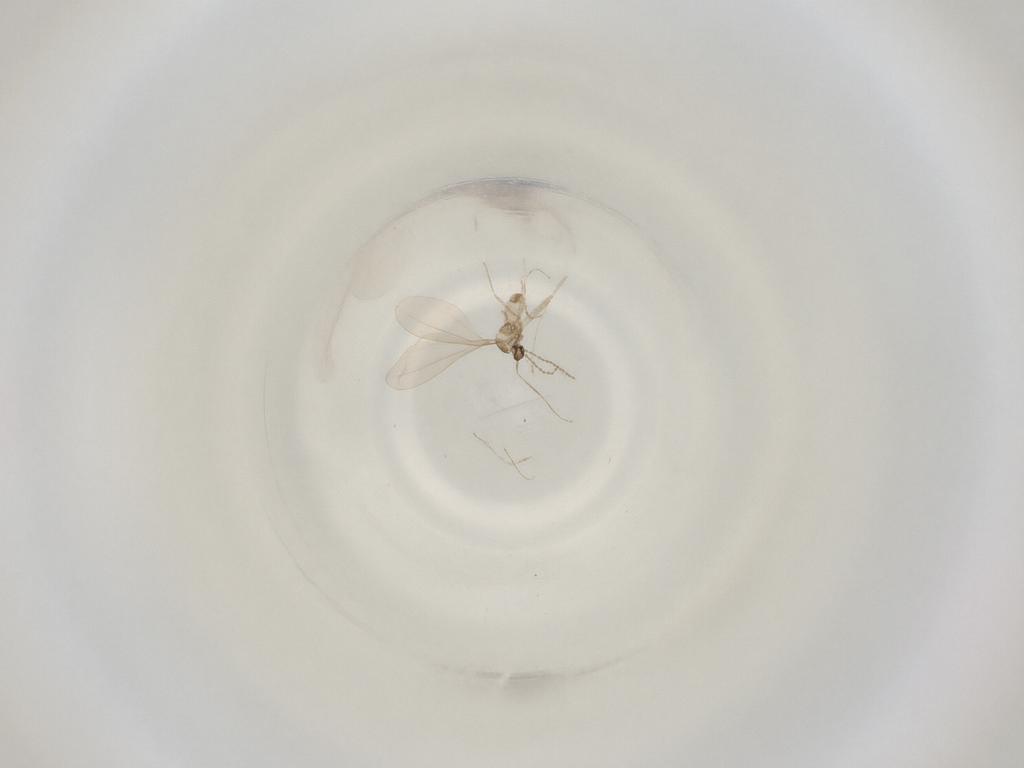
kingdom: Animalia
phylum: Arthropoda
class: Insecta
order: Diptera
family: Cecidomyiidae
